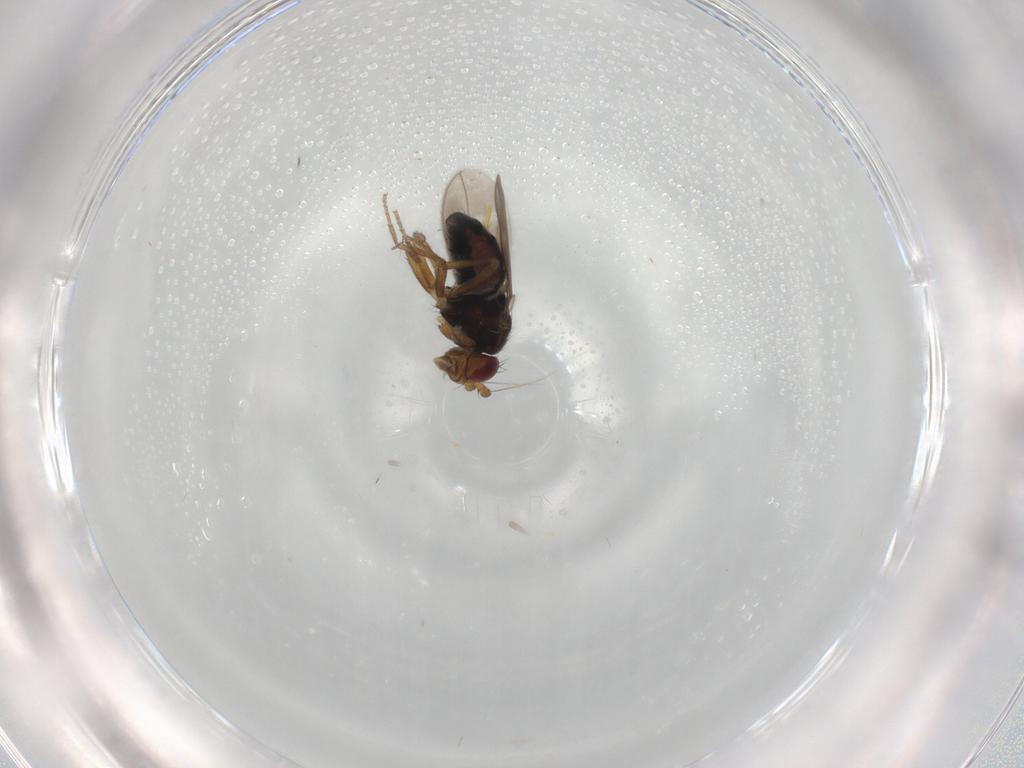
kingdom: Animalia
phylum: Arthropoda
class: Insecta
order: Diptera
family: Sphaeroceridae
